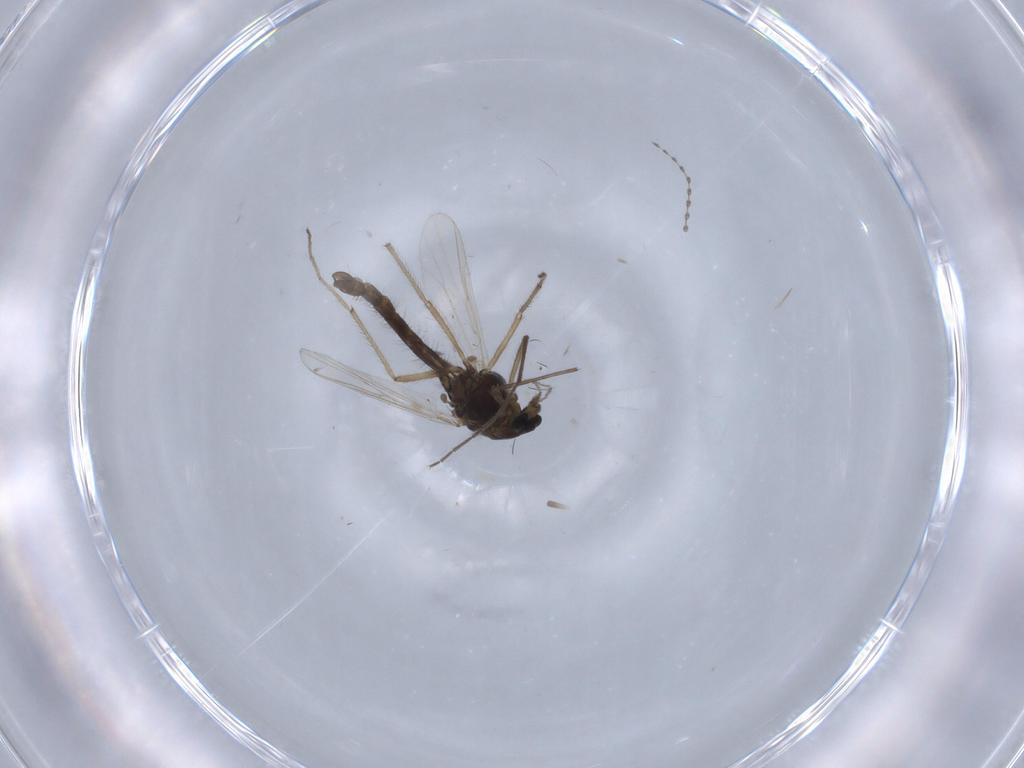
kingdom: Animalia
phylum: Arthropoda
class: Insecta
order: Diptera
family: Chironomidae
